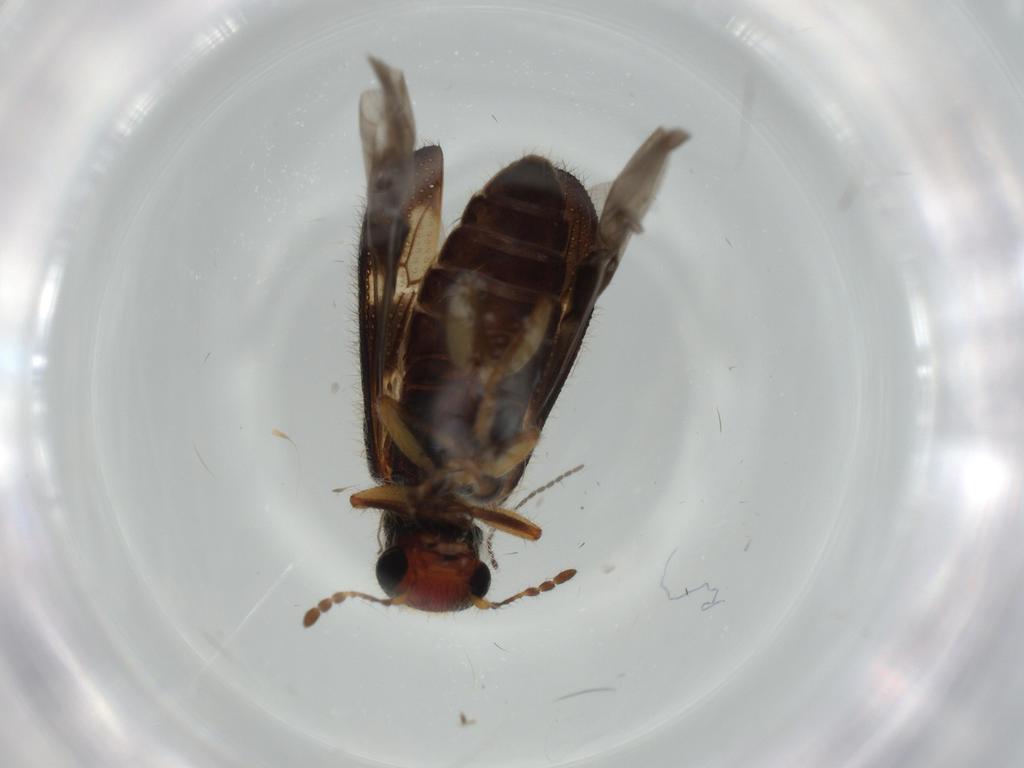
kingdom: Animalia
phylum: Arthropoda
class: Insecta
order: Coleoptera
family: Cleridae
